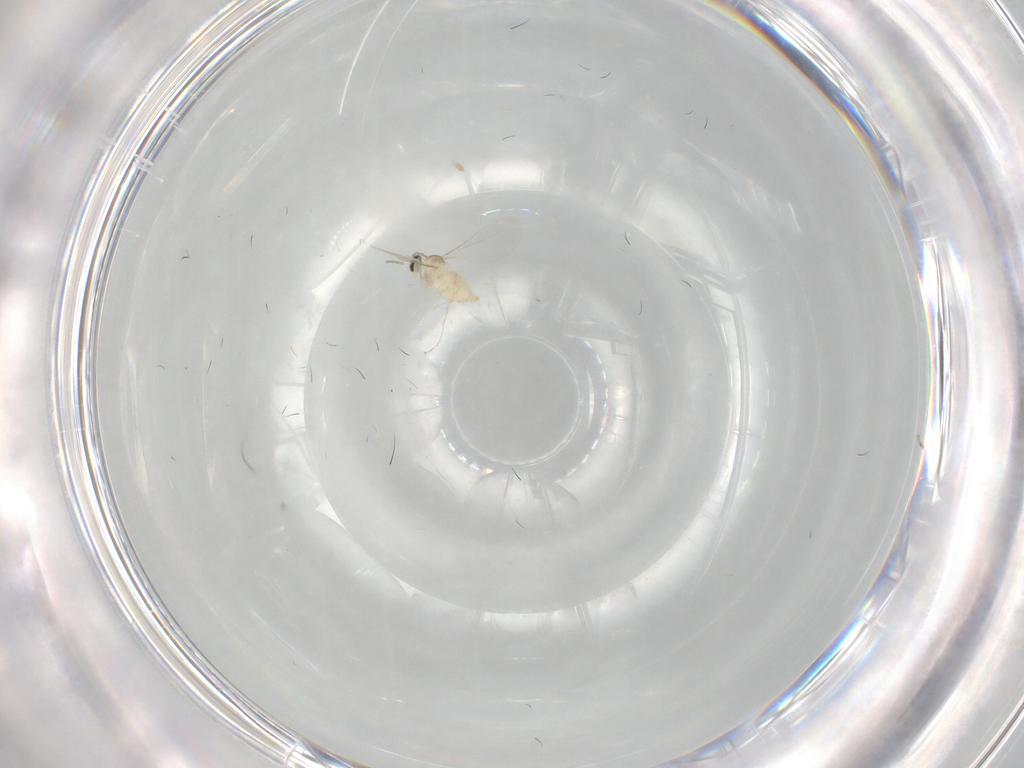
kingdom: Animalia
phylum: Arthropoda
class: Insecta
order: Diptera
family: Cecidomyiidae
